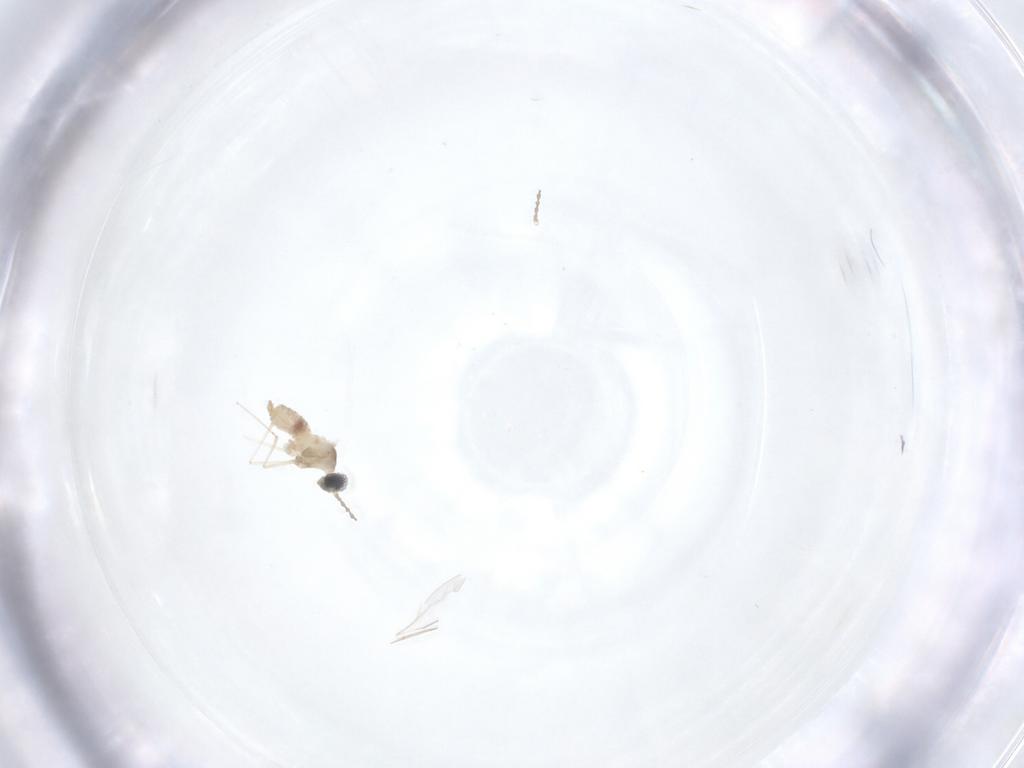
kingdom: Animalia
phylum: Arthropoda
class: Insecta
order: Diptera
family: Cecidomyiidae
